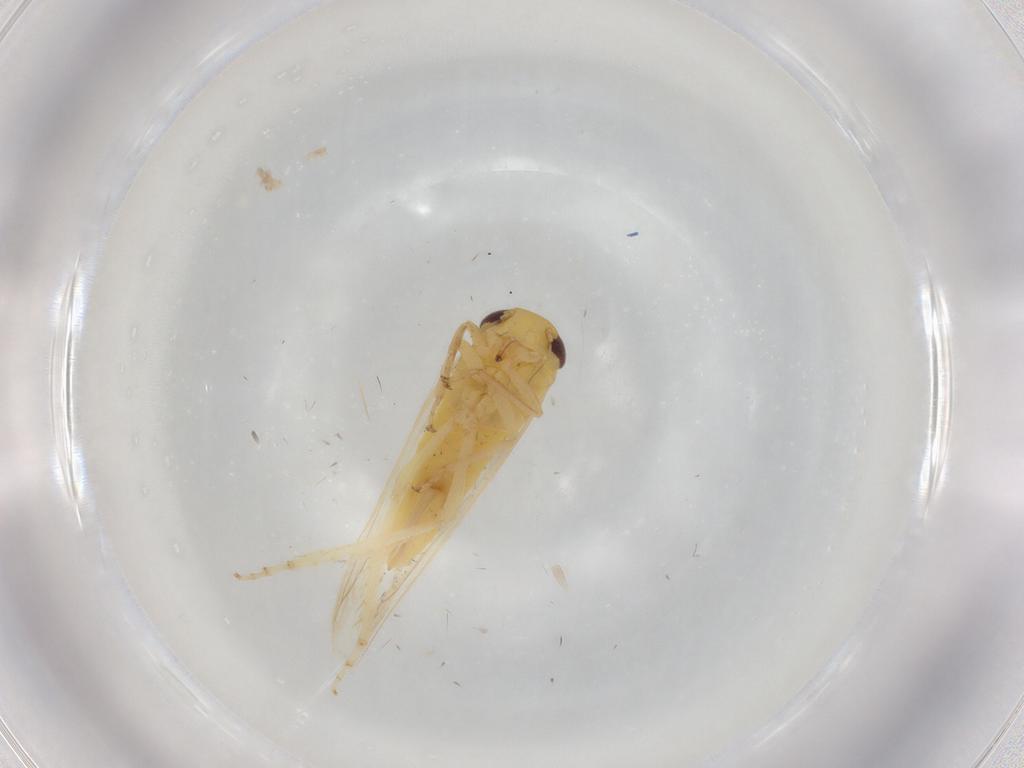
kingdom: Animalia
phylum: Arthropoda
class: Insecta
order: Hemiptera
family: Cicadellidae
